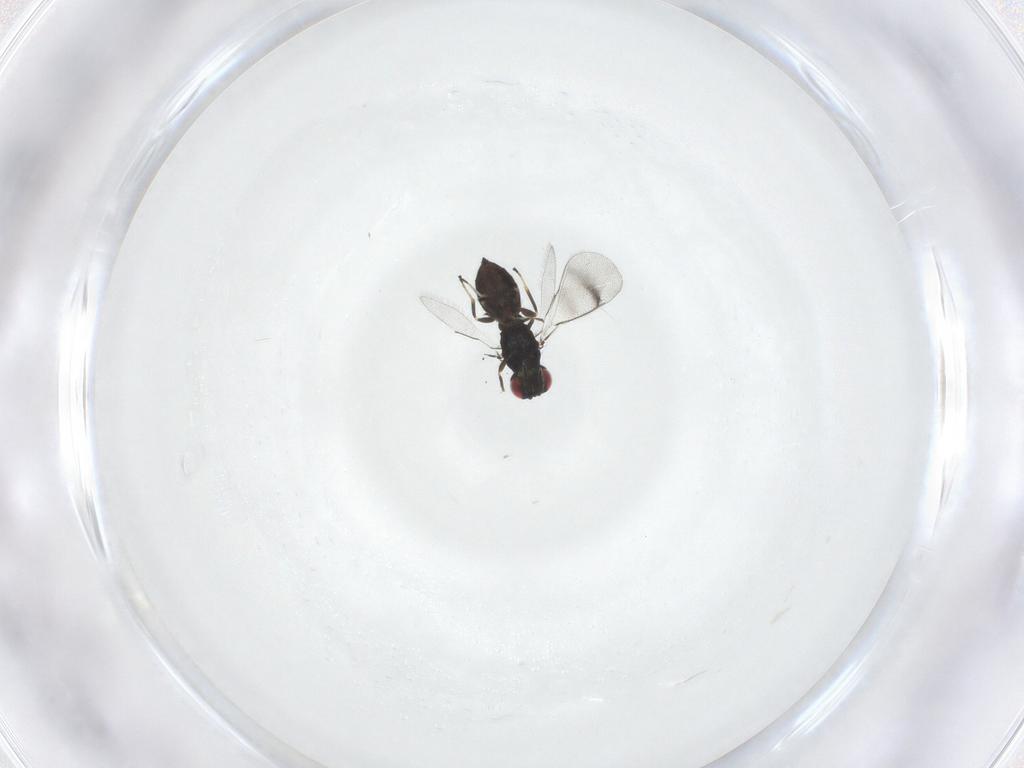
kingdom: Animalia
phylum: Arthropoda
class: Insecta
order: Hymenoptera
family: Eulophidae
